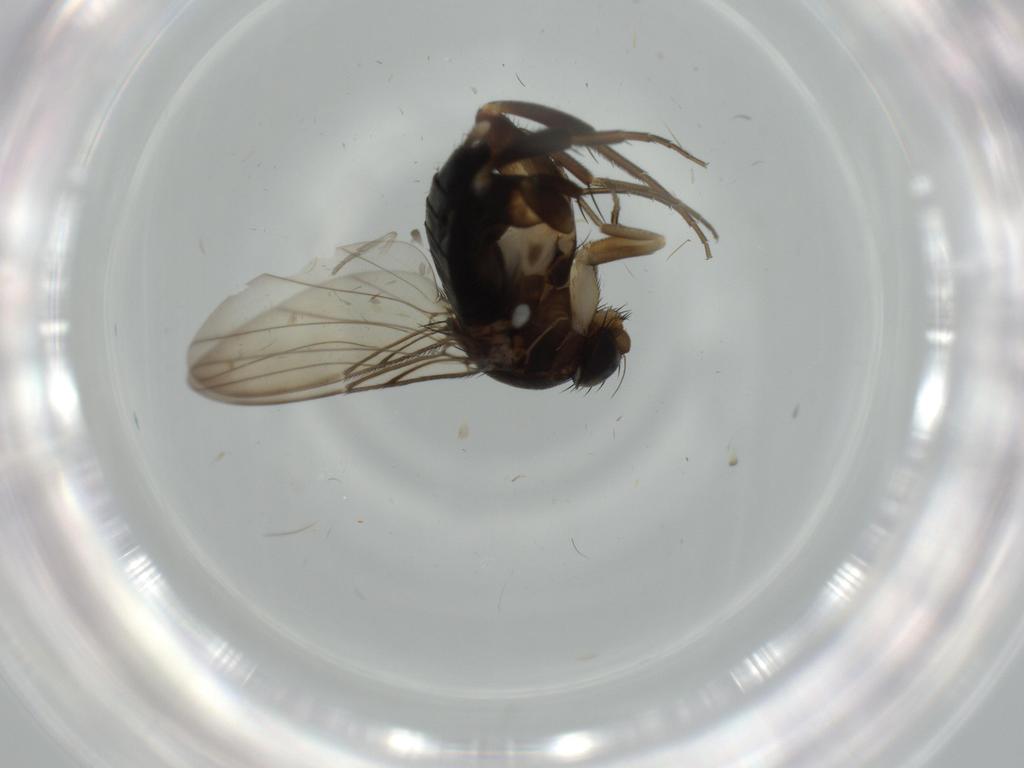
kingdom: Animalia
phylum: Arthropoda
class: Insecta
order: Diptera
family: Phoridae
